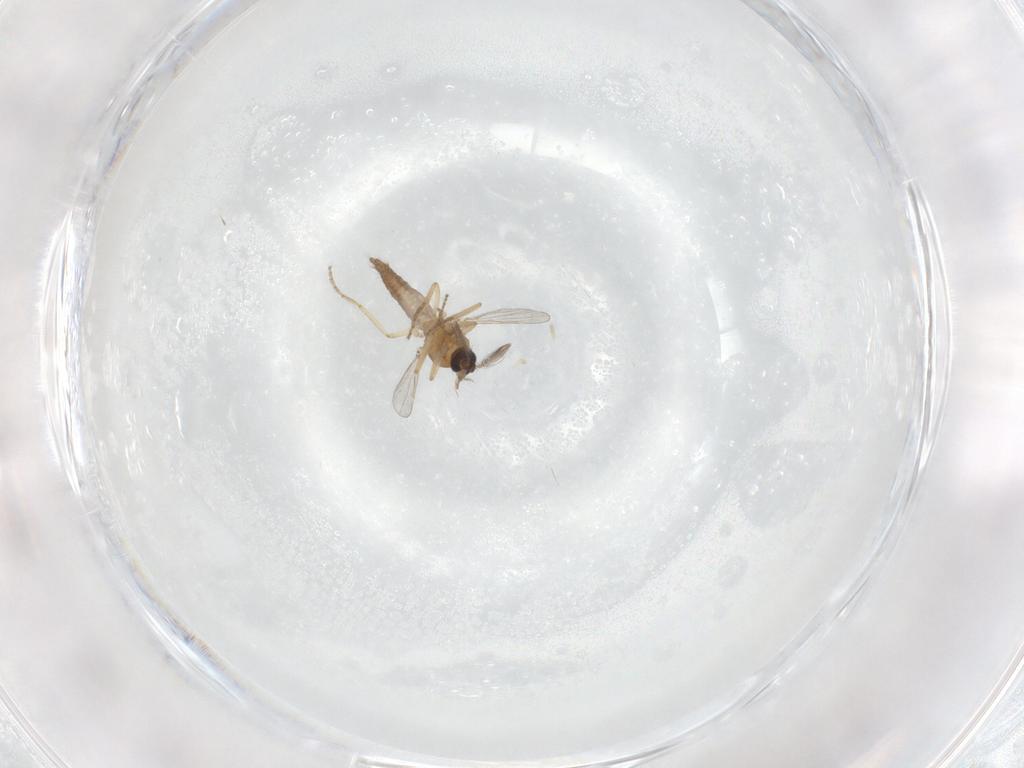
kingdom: Animalia
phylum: Arthropoda
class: Insecta
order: Diptera
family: Ceratopogonidae
